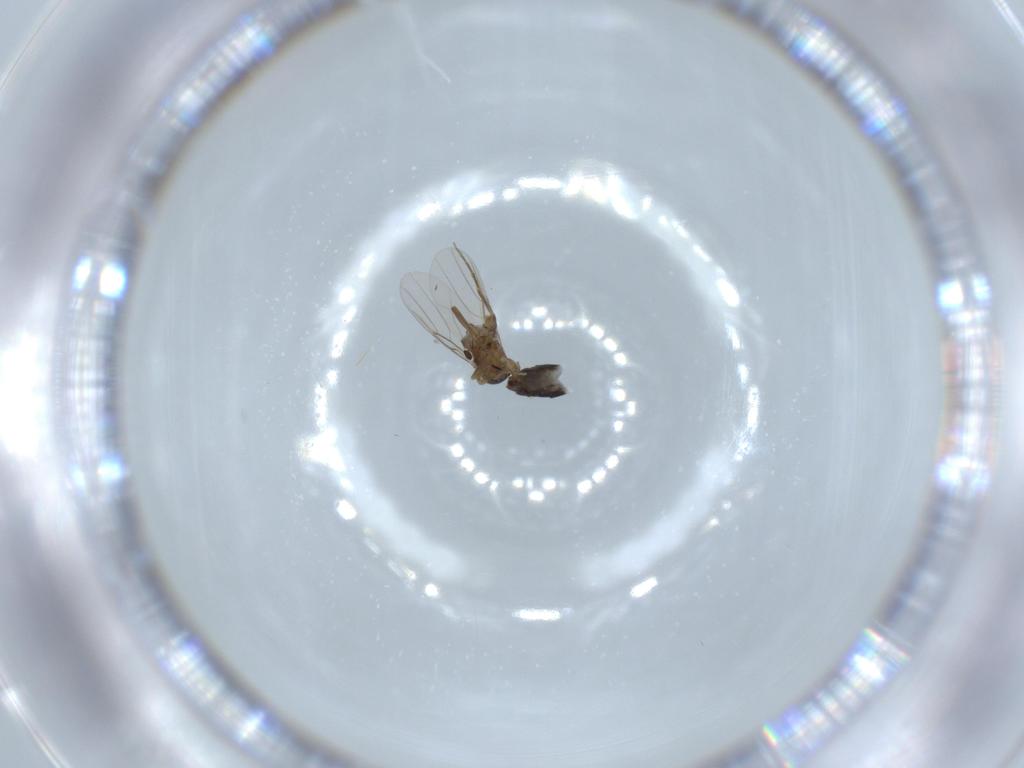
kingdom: Animalia
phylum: Arthropoda
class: Insecta
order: Diptera
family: Phoridae
